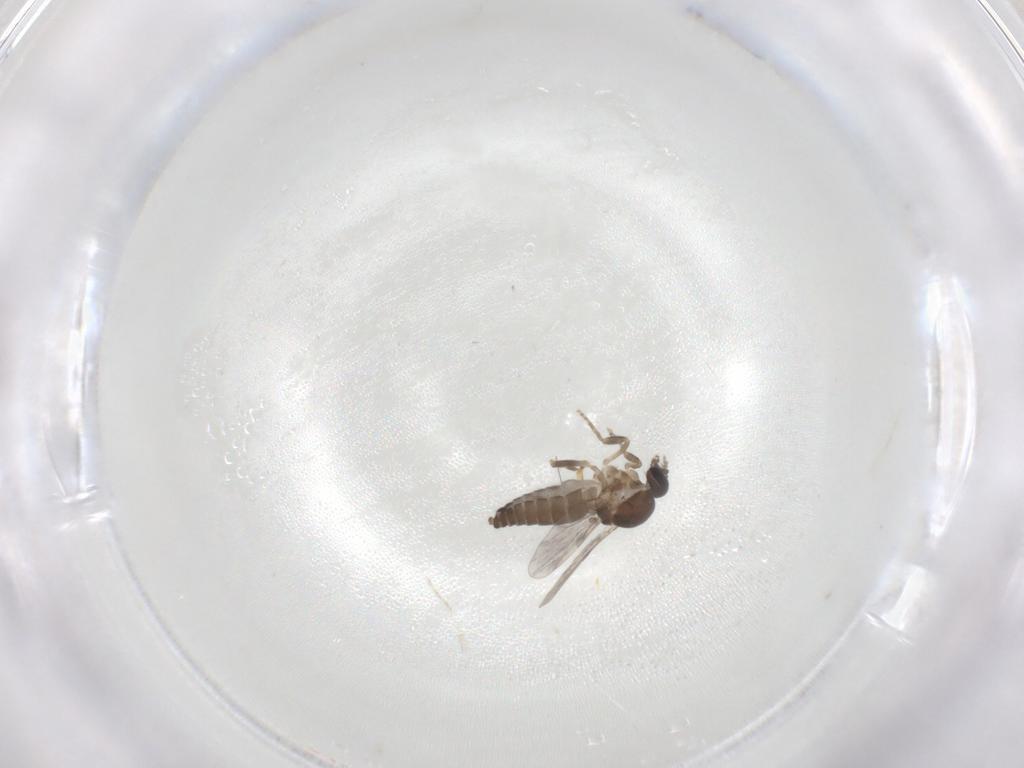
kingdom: Animalia
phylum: Arthropoda
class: Insecta
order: Diptera
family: Ceratopogonidae
